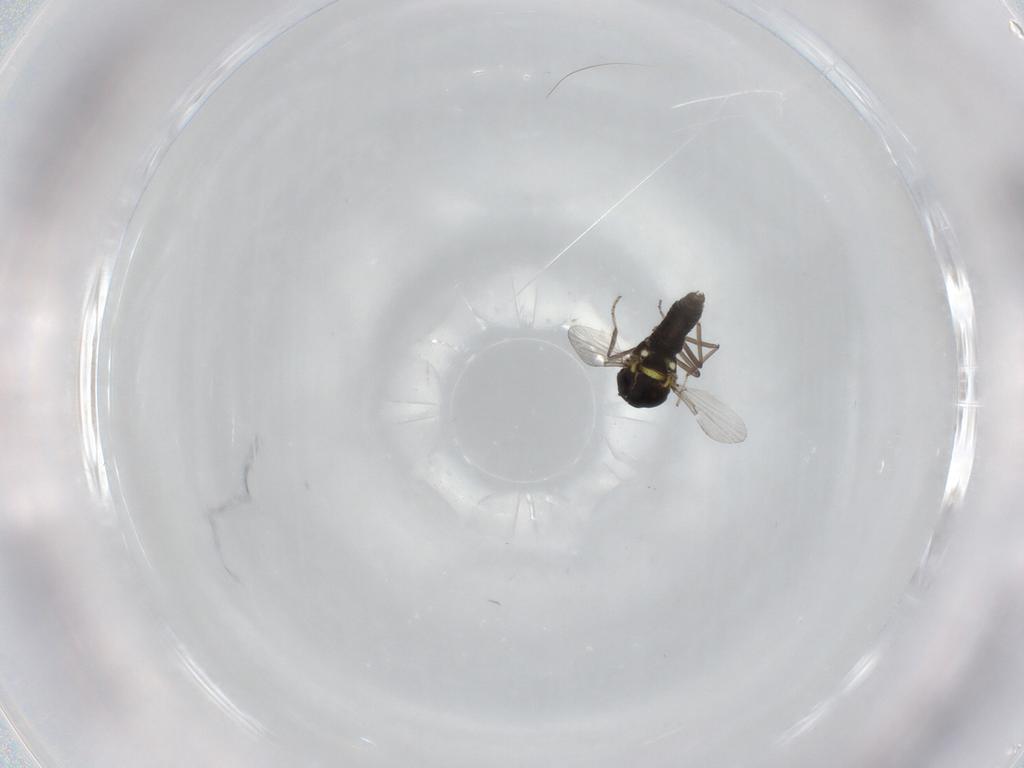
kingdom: Animalia
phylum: Arthropoda
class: Insecta
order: Diptera
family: Ceratopogonidae
